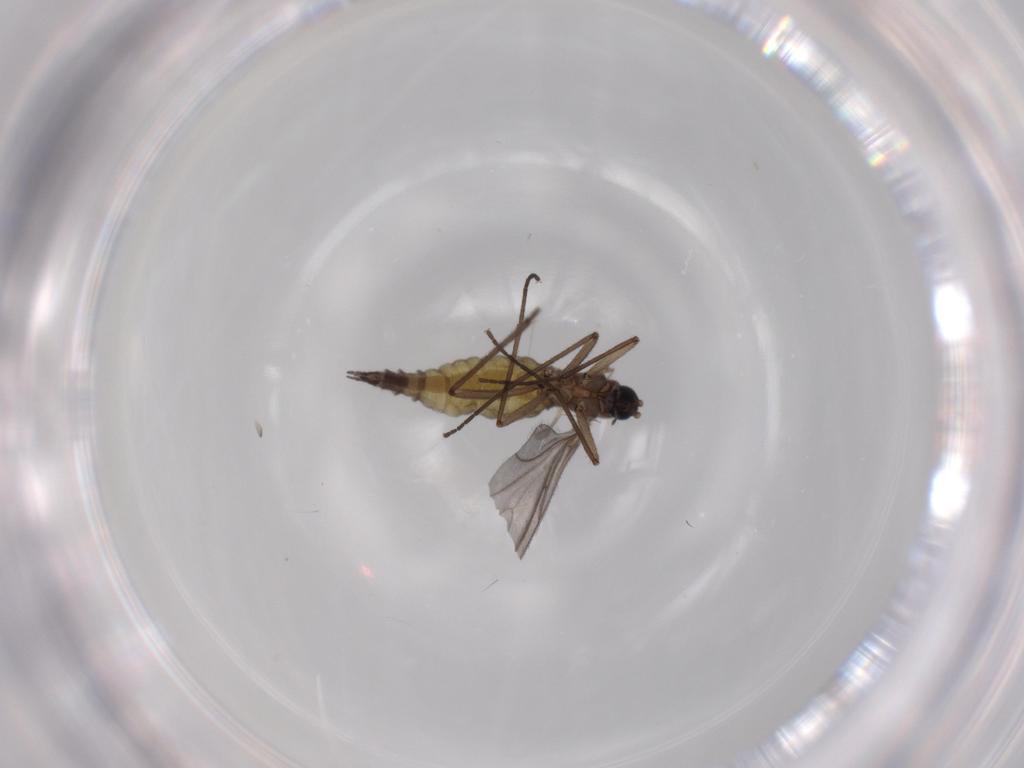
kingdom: Animalia
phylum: Arthropoda
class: Insecta
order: Diptera
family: Sciaridae
